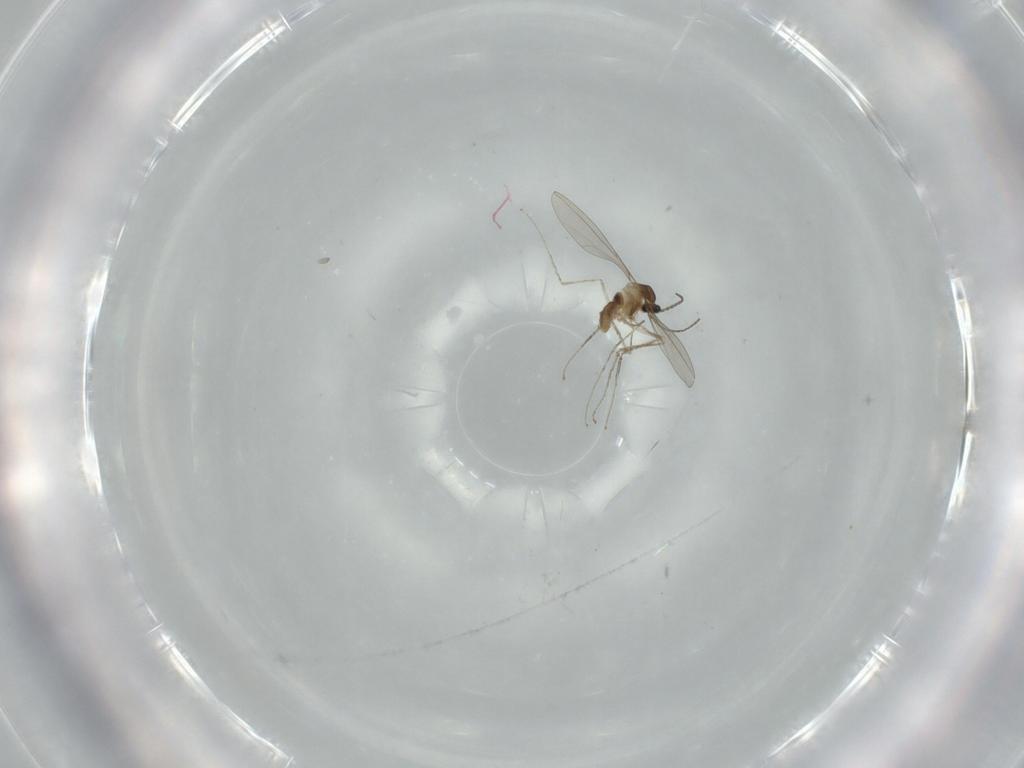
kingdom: Animalia
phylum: Arthropoda
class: Insecta
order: Diptera
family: Cecidomyiidae
